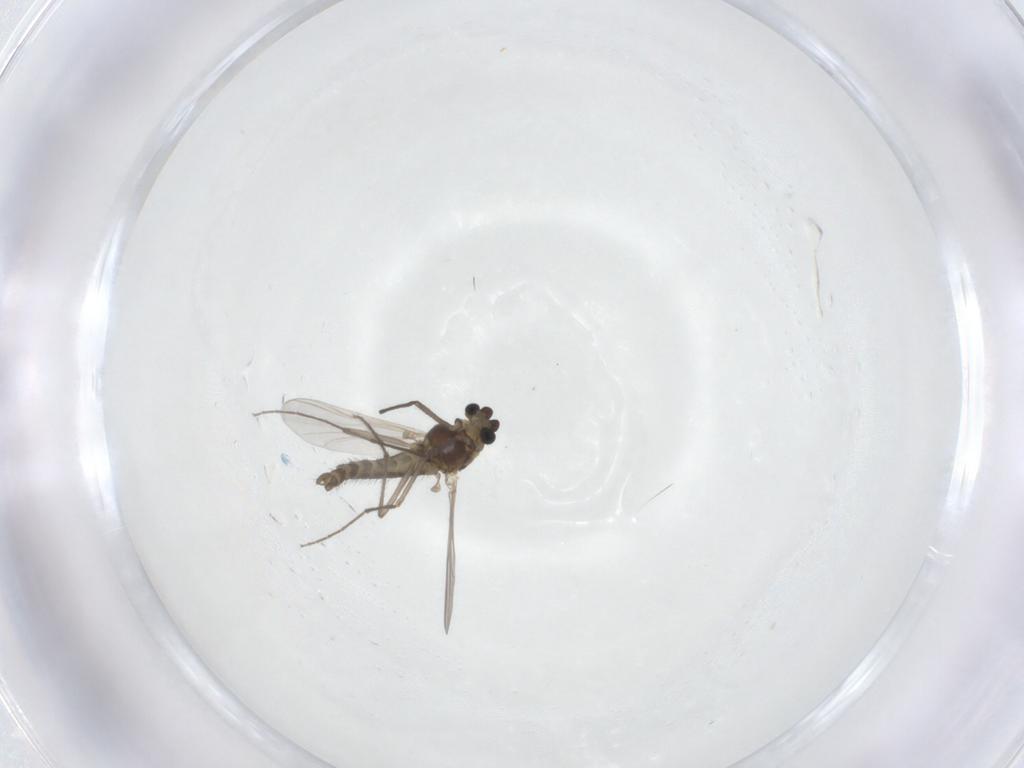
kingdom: Animalia
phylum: Arthropoda
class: Insecta
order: Diptera
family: Chironomidae
